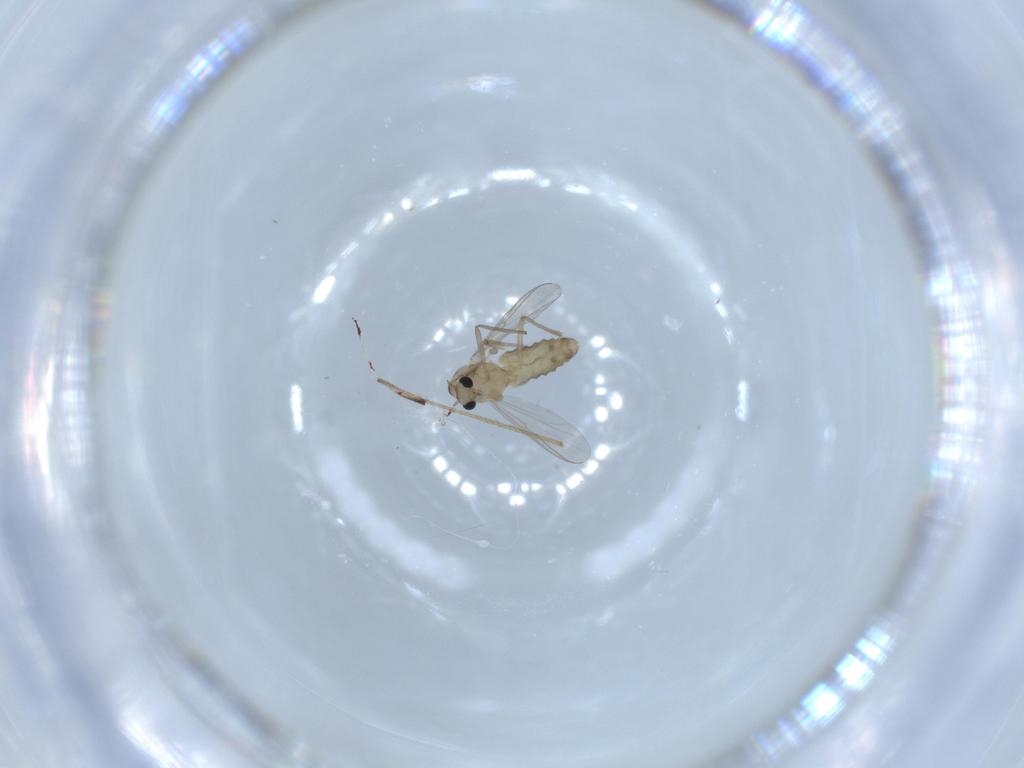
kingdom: Animalia
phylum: Arthropoda
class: Insecta
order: Diptera
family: Chironomidae
